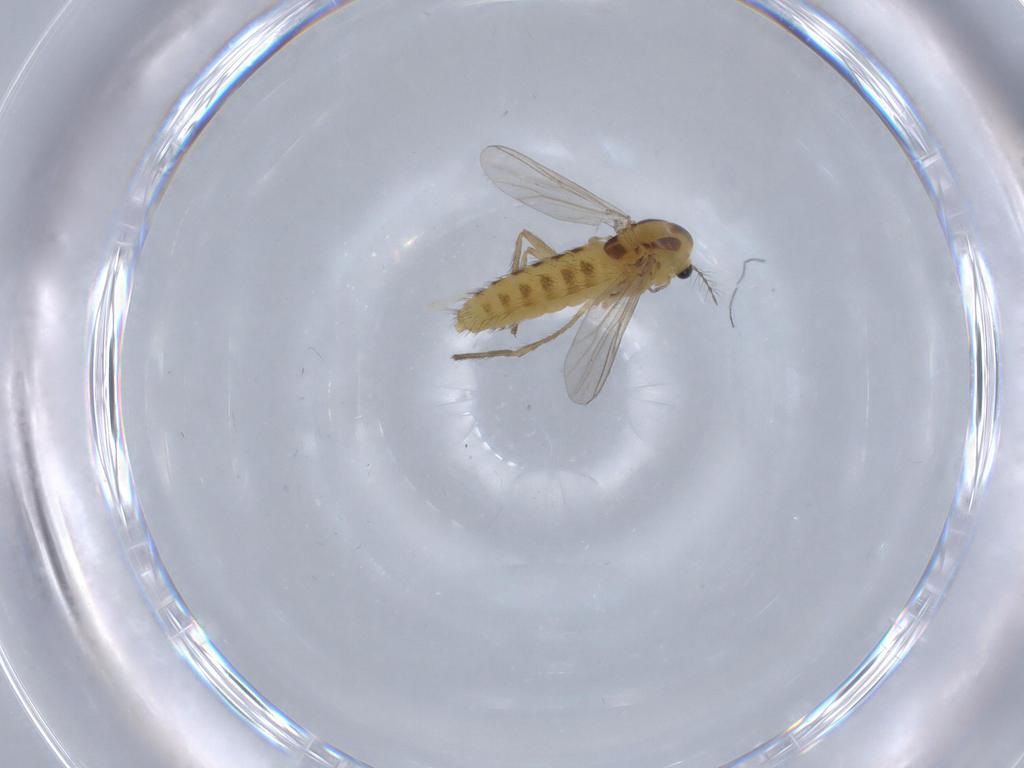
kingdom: Animalia
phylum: Arthropoda
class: Insecta
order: Diptera
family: Chironomidae
